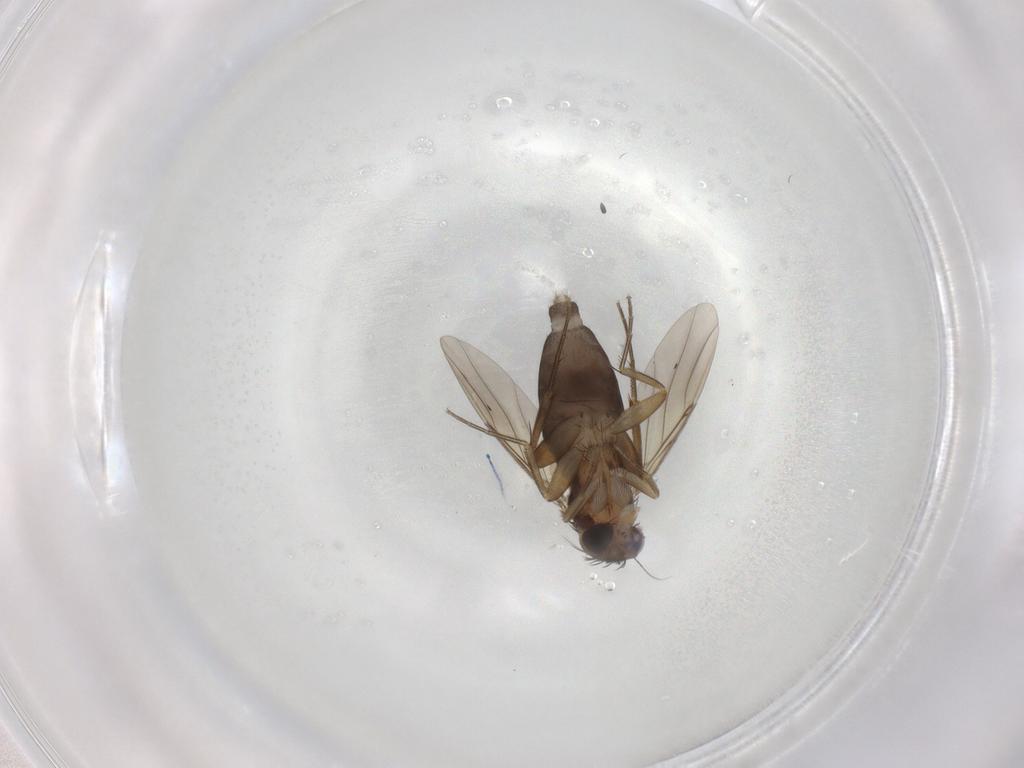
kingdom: Animalia
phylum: Arthropoda
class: Insecta
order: Diptera
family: Phoridae
